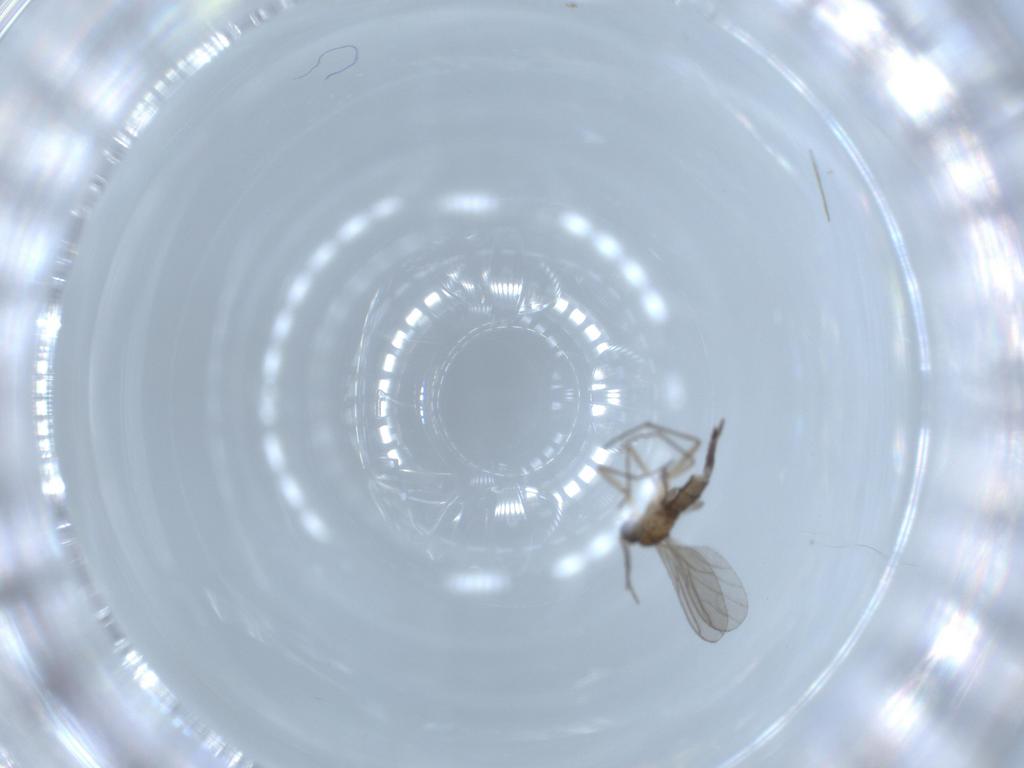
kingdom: Animalia
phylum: Arthropoda
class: Insecta
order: Diptera
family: Sciaridae
